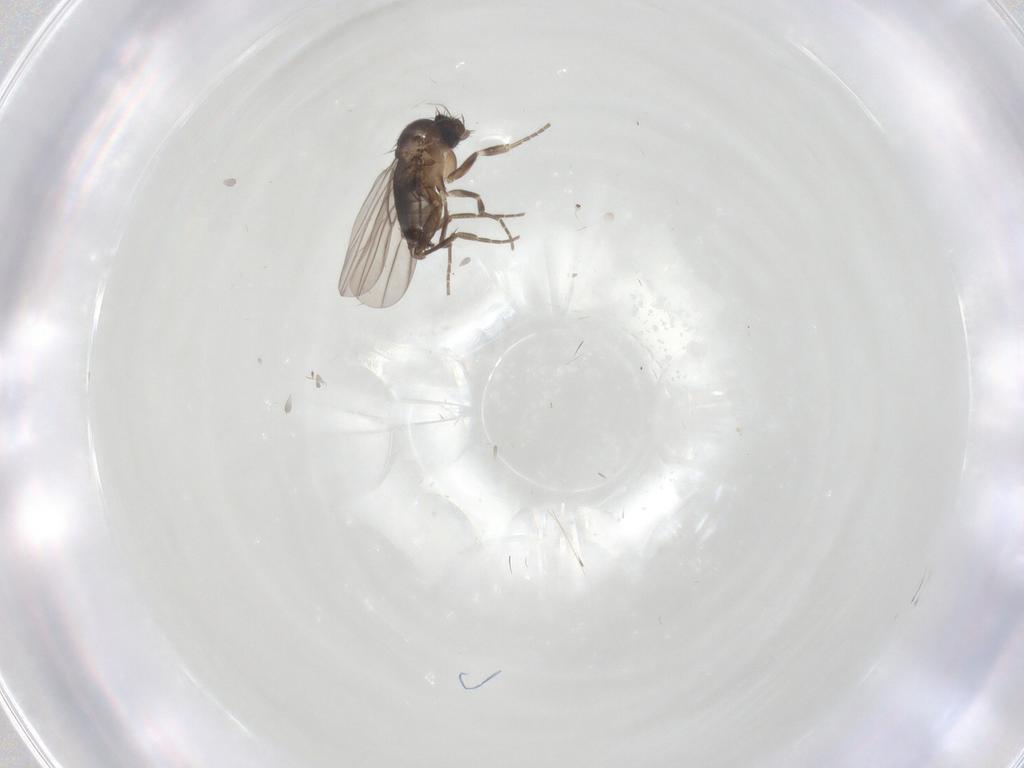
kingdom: Animalia
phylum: Arthropoda
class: Insecta
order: Diptera
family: Phoridae
